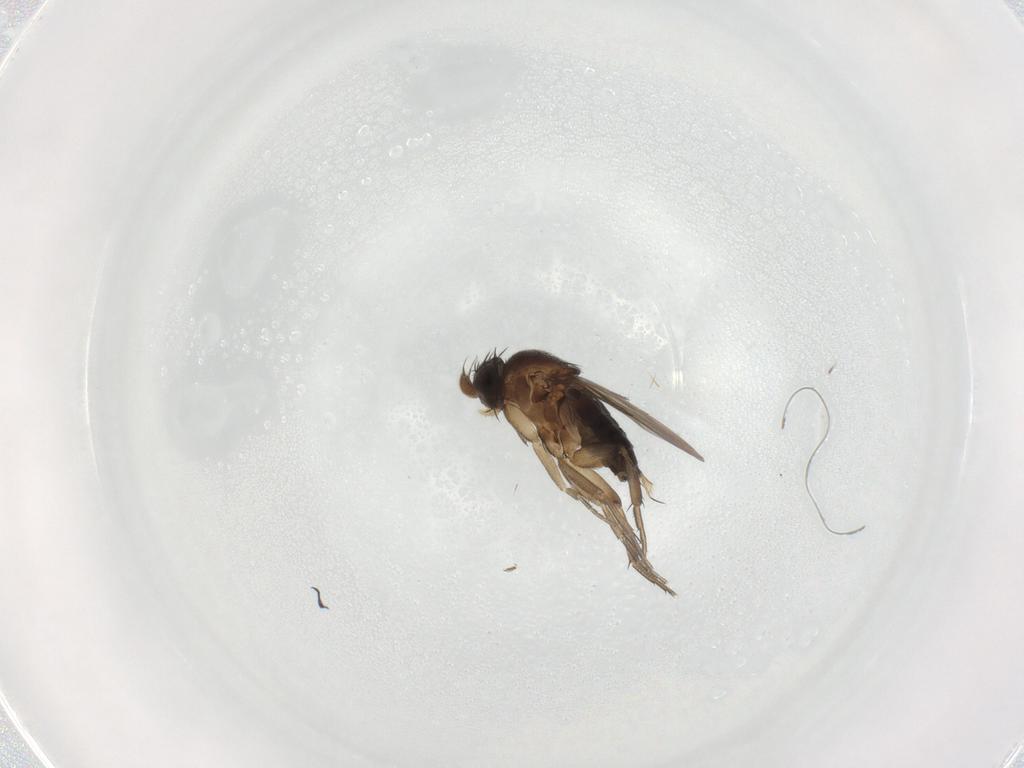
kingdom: Animalia
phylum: Arthropoda
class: Insecta
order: Diptera
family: Phoridae
